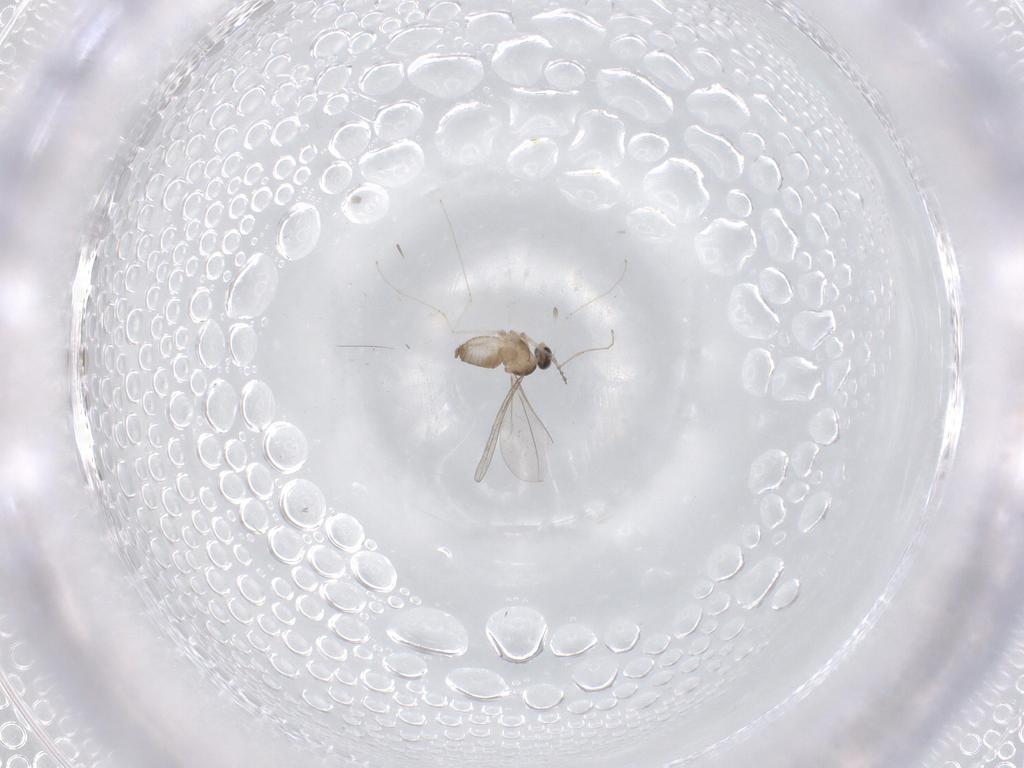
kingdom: Animalia
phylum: Arthropoda
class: Insecta
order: Diptera
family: Cecidomyiidae
